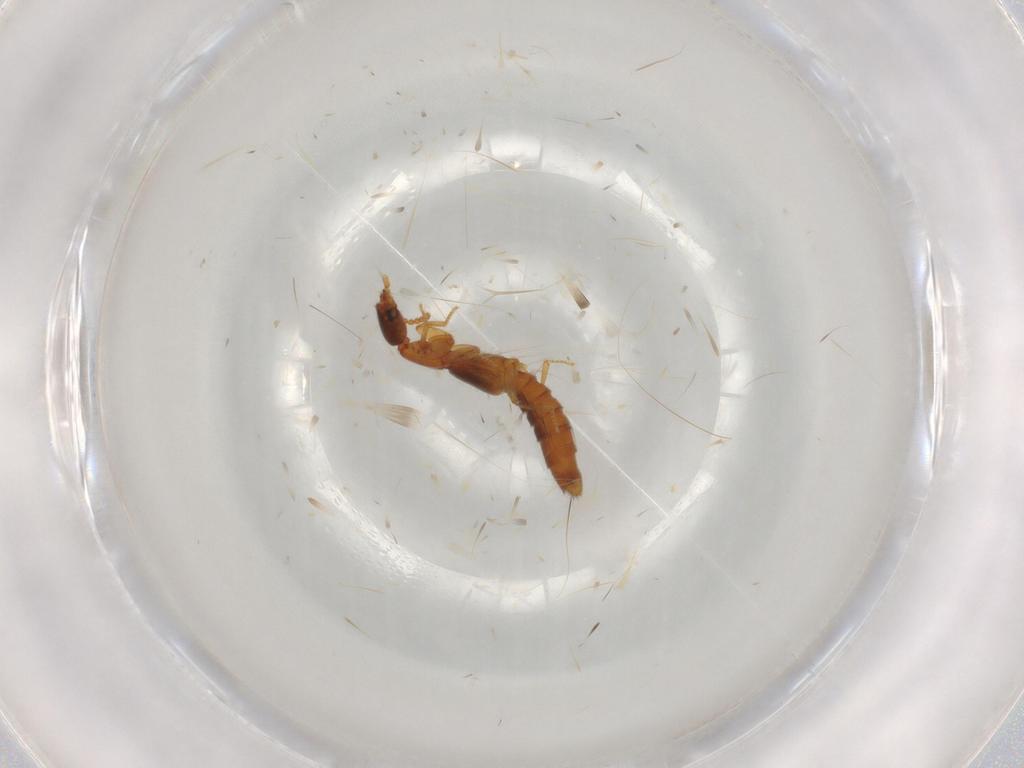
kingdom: Animalia
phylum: Arthropoda
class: Insecta
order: Coleoptera
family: Staphylinidae
